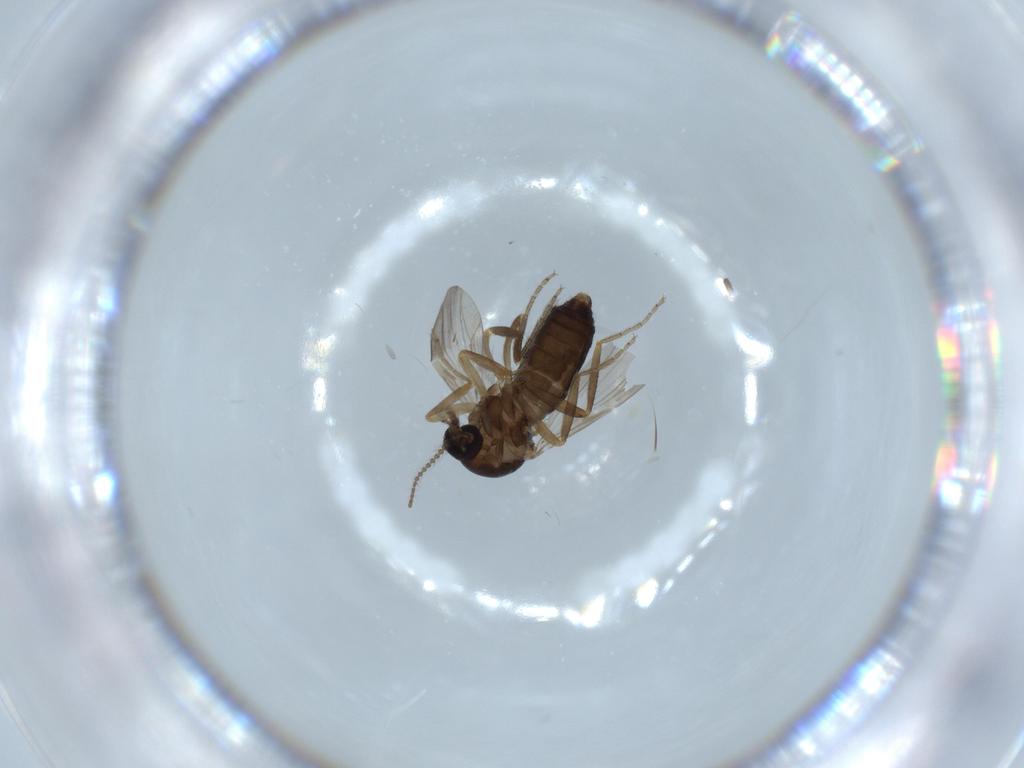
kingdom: Animalia
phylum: Arthropoda
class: Insecta
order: Diptera
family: Ceratopogonidae
